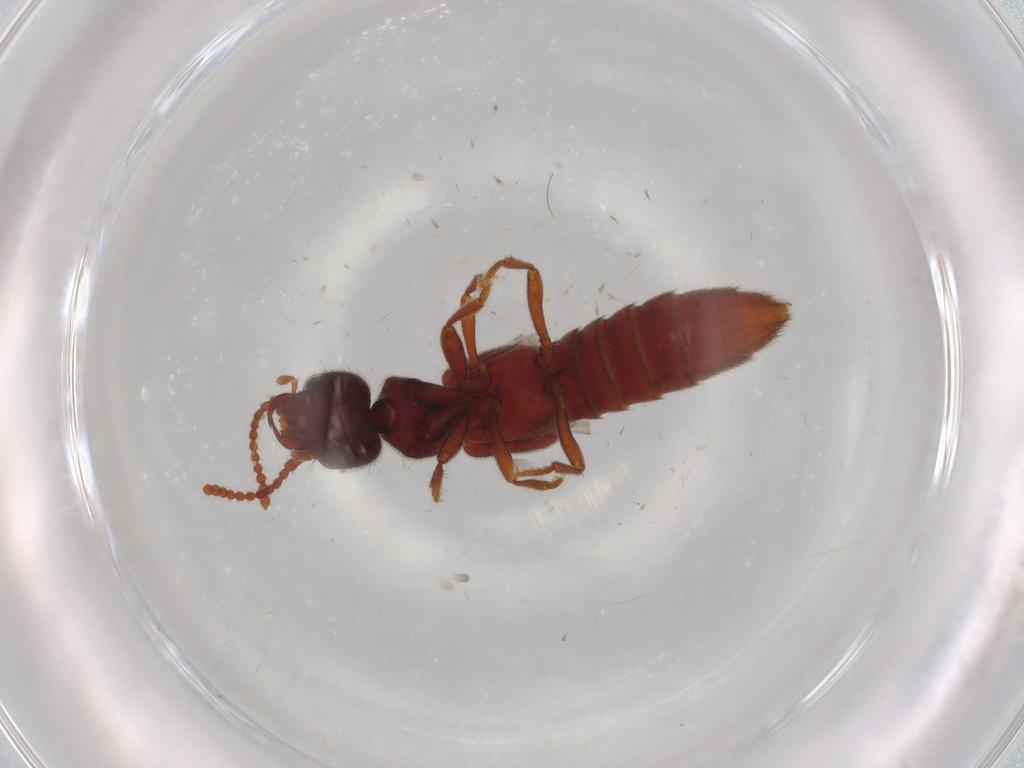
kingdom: Animalia
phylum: Arthropoda
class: Insecta
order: Coleoptera
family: Staphylinidae
